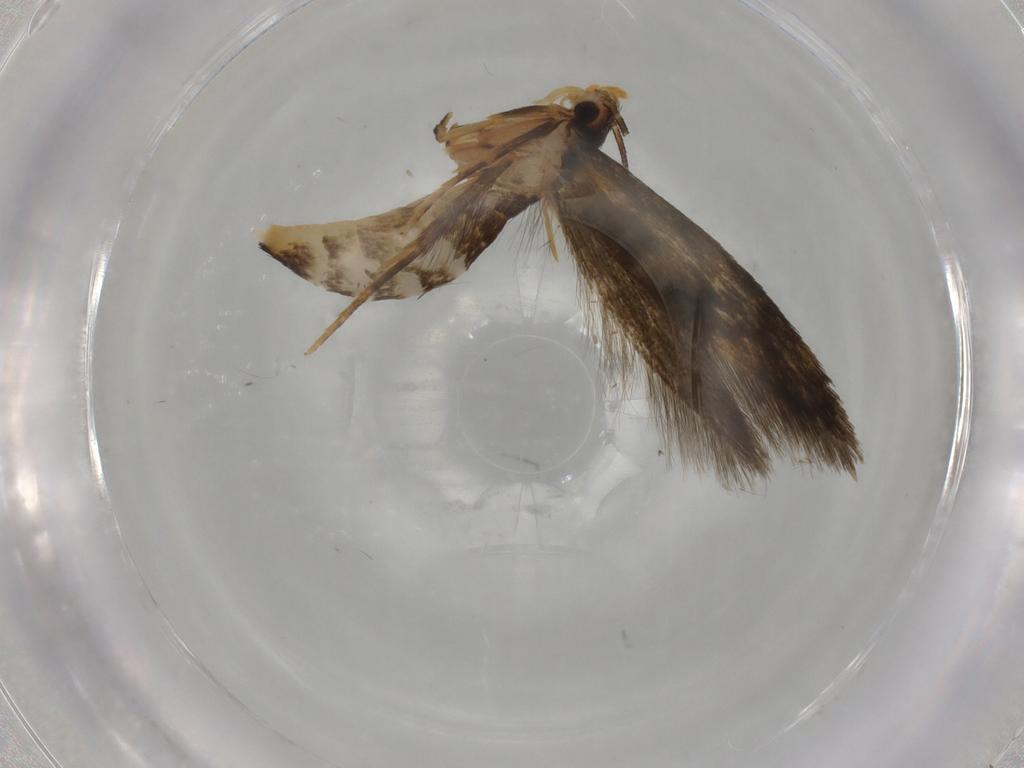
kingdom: Animalia
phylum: Arthropoda
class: Insecta
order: Lepidoptera
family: Tineidae
